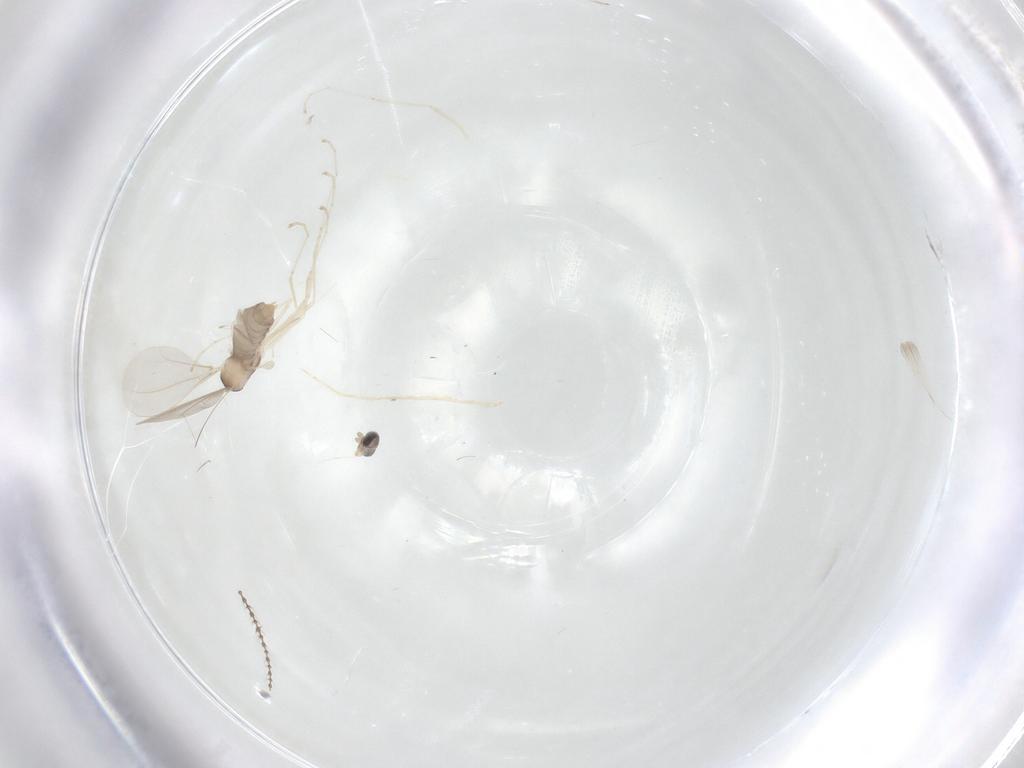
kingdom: Animalia
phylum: Arthropoda
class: Insecta
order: Diptera
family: Cecidomyiidae
